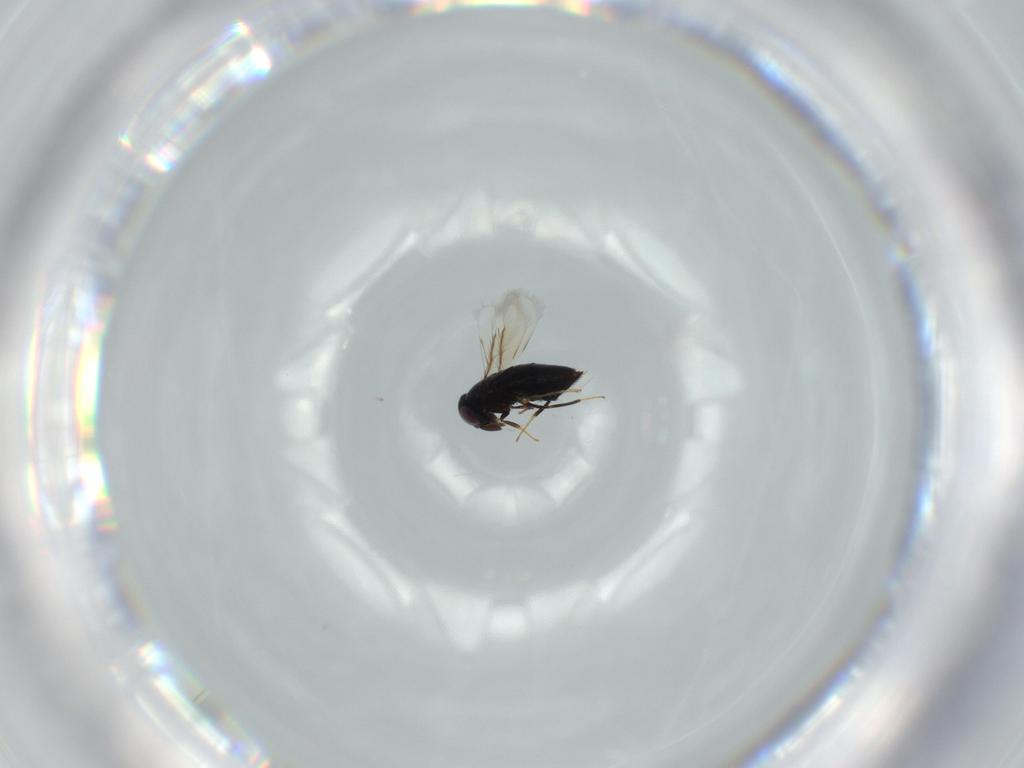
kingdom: Animalia
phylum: Arthropoda
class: Insecta
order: Hymenoptera
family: Signiphoridae
